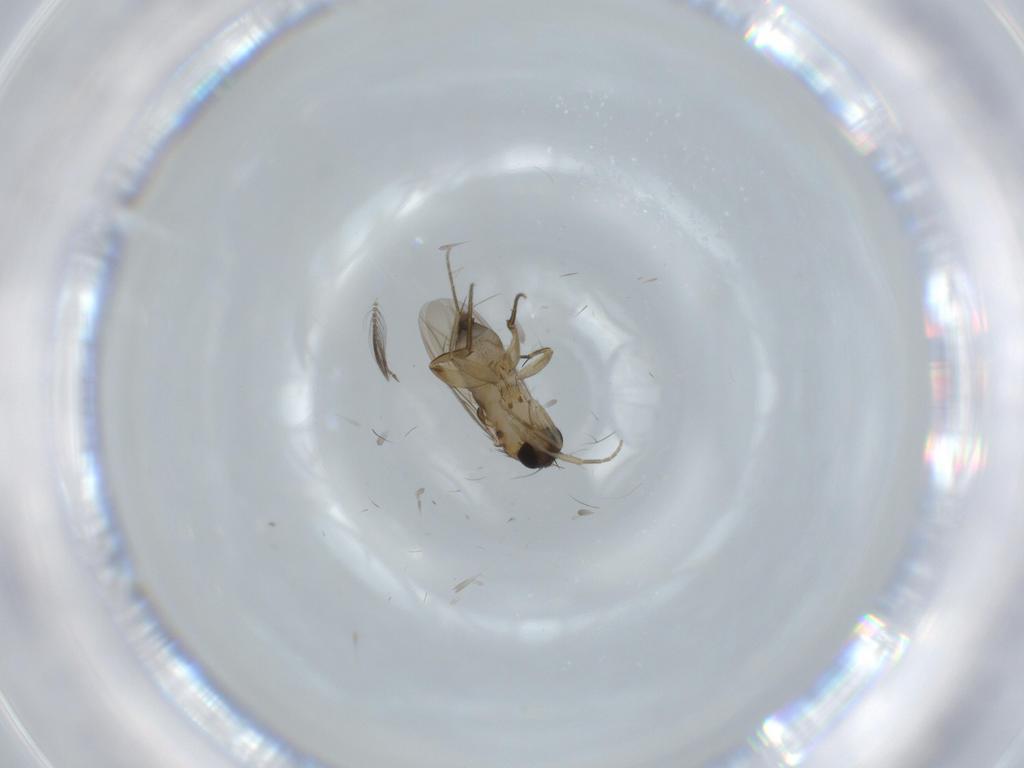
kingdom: Animalia
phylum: Arthropoda
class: Insecta
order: Diptera
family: Phoridae
